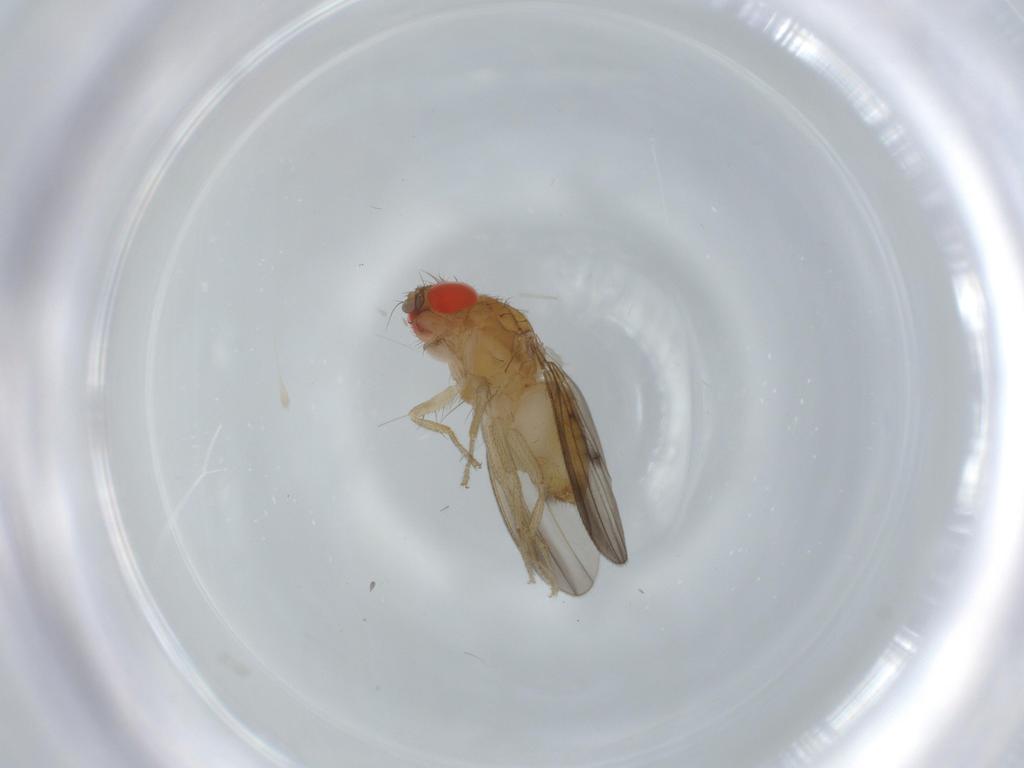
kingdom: Animalia
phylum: Arthropoda
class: Insecta
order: Diptera
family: Drosophilidae
